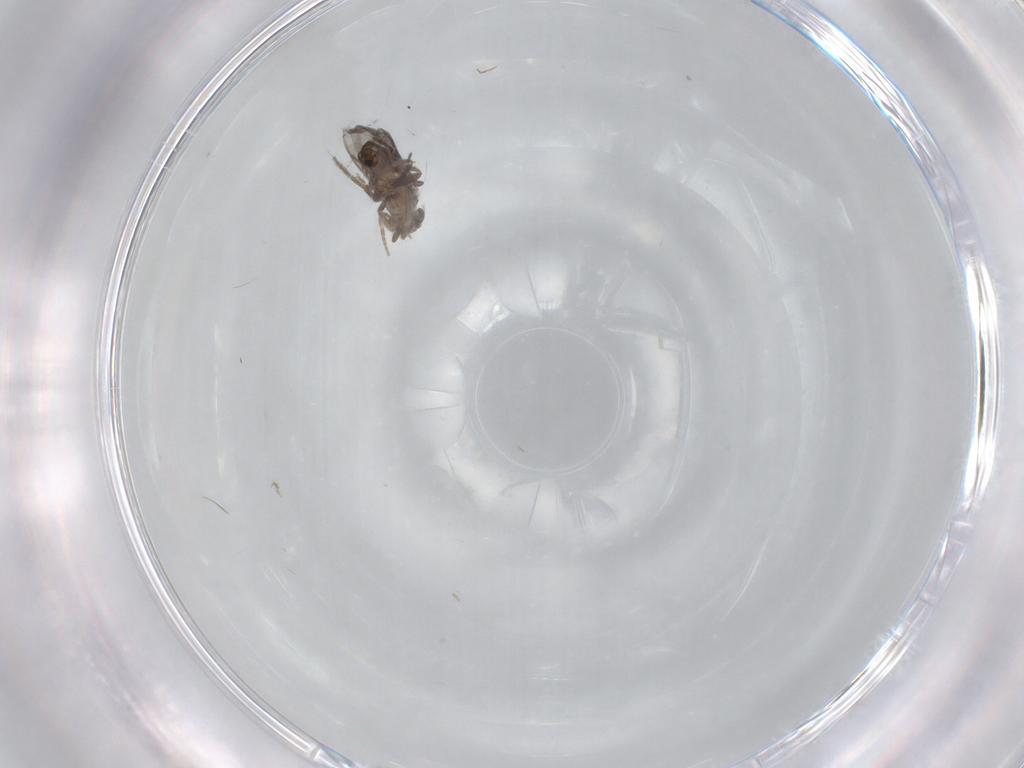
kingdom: Animalia
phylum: Arthropoda
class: Insecta
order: Diptera
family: Cecidomyiidae
